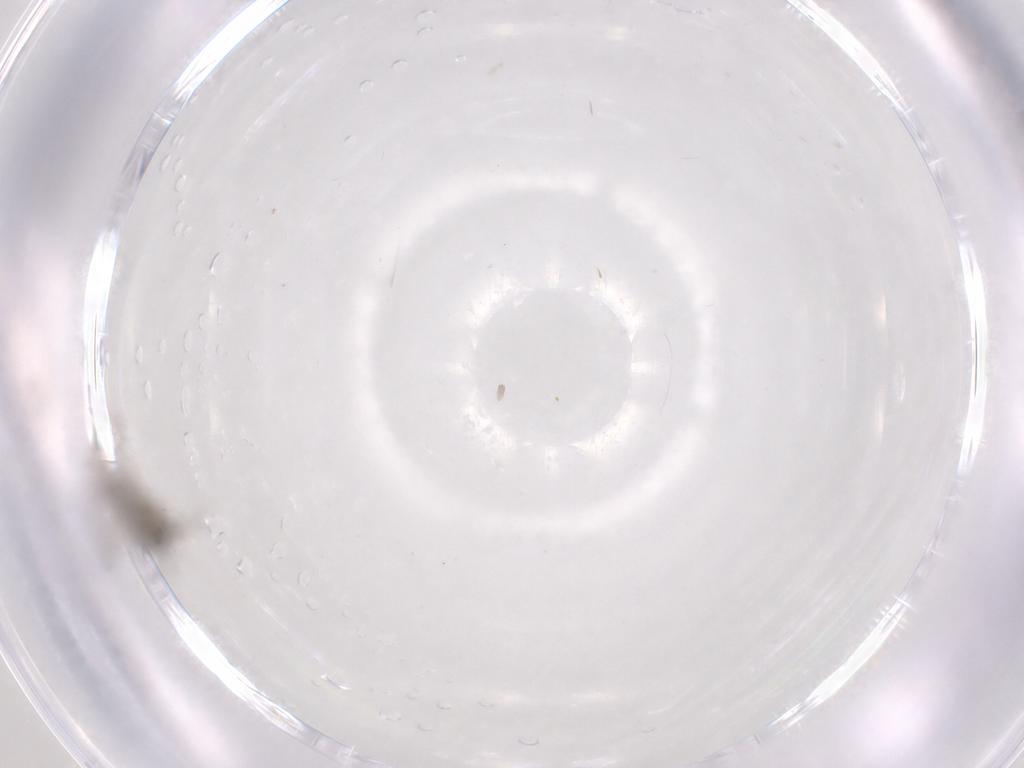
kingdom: Animalia
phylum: Arthropoda
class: Insecta
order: Diptera
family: Psychodidae
